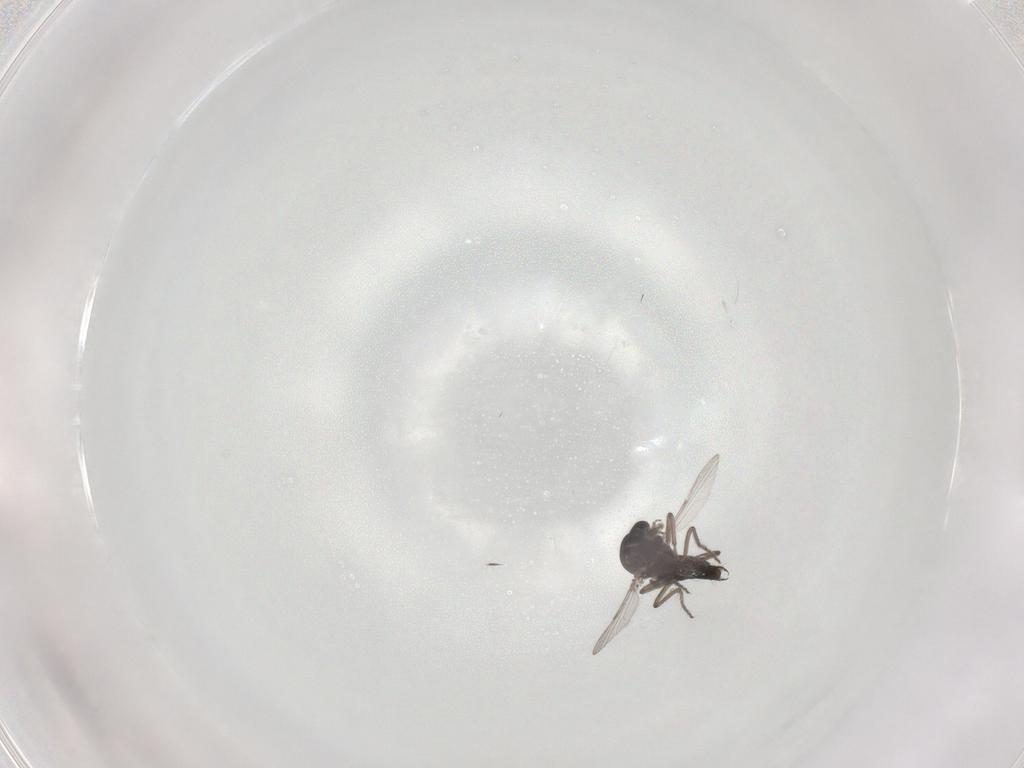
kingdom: Animalia
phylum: Arthropoda
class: Insecta
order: Diptera
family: Ceratopogonidae
